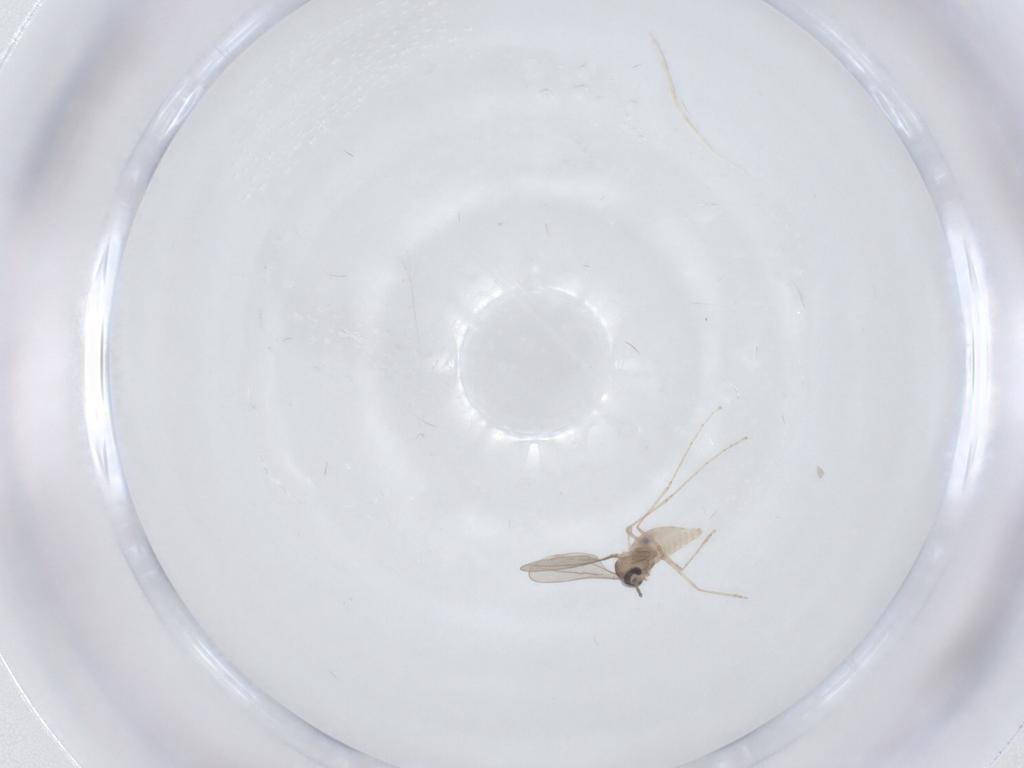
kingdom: Animalia
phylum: Arthropoda
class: Insecta
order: Diptera
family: Cecidomyiidae
